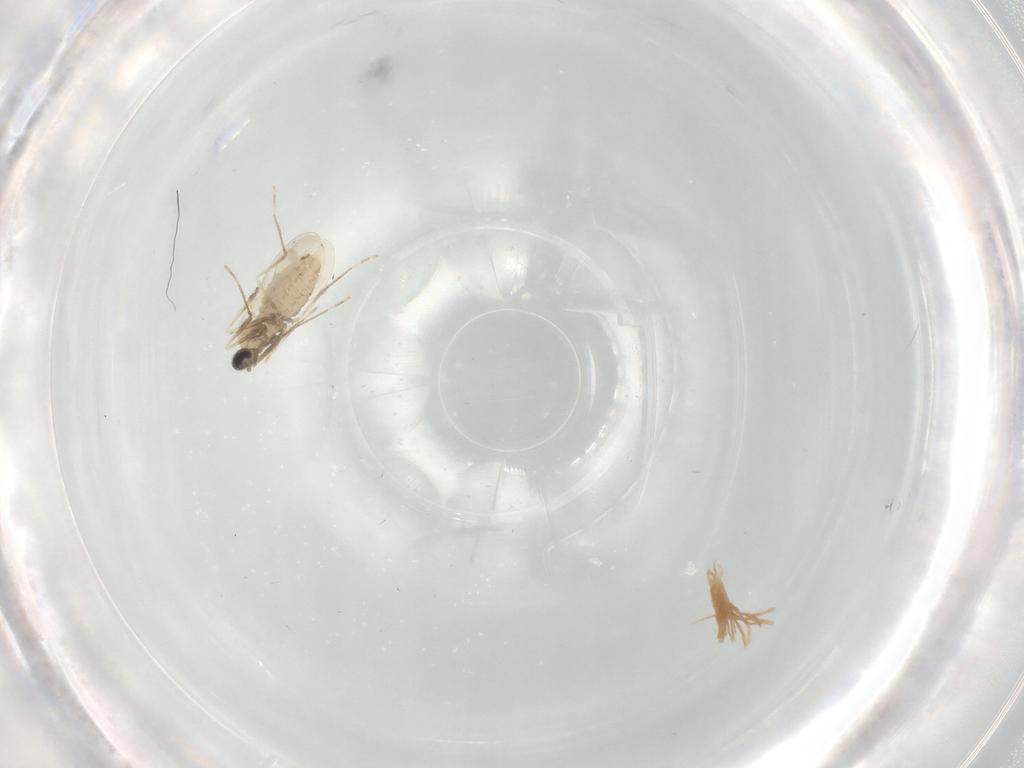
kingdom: Animalia
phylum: Arthropoda
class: Insecta
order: Diptera
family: Cecidomyiidae
